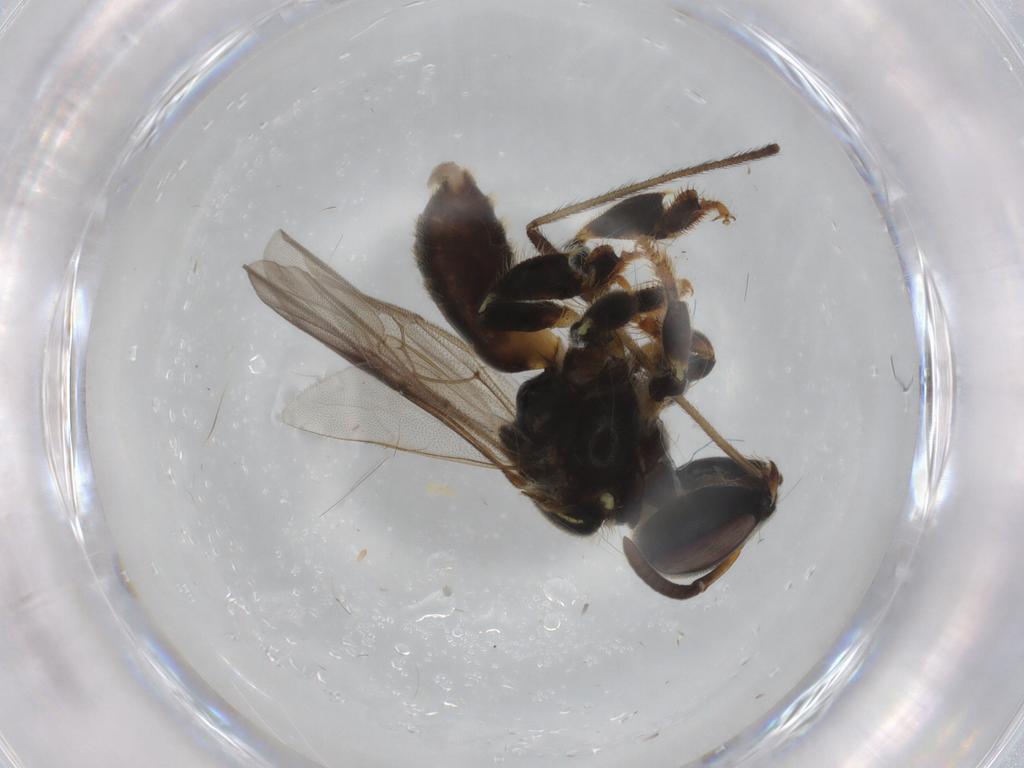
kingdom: Animalia
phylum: Arthropoda
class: Insecta
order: Hymenoptera
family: Apidae
